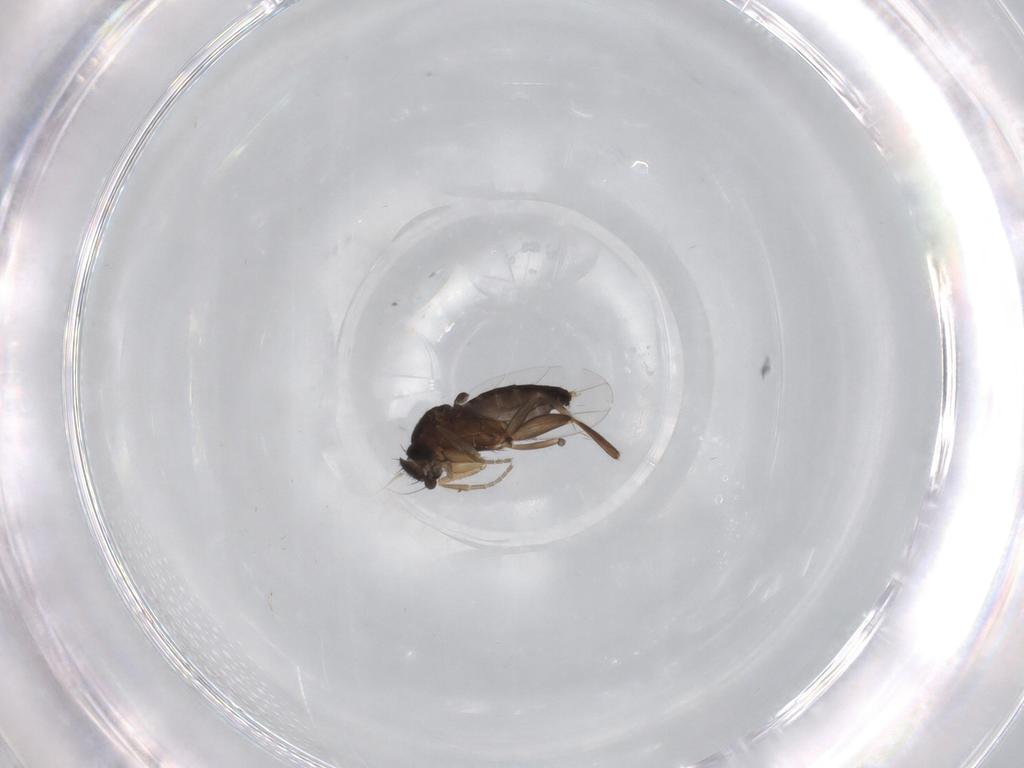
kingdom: Animalia
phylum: Arthropoda
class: Insecta
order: Diptera
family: Phoridae
